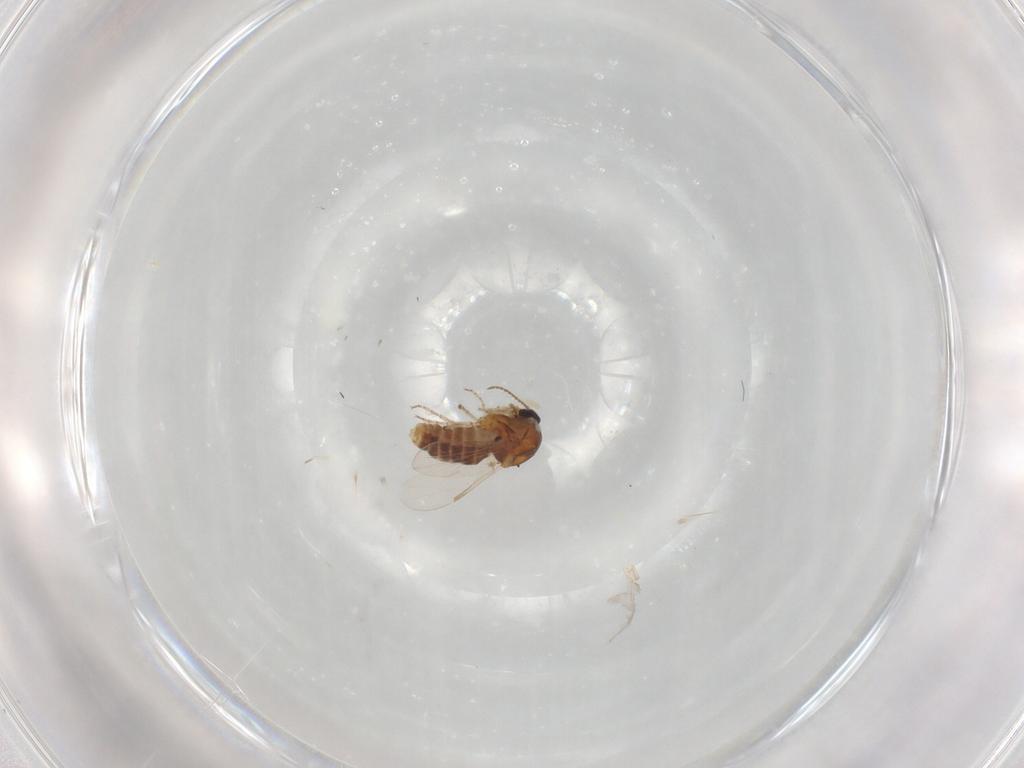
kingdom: Animalia
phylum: Arthropoda
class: Insecta
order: Diptera
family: Ceratopogonidae
